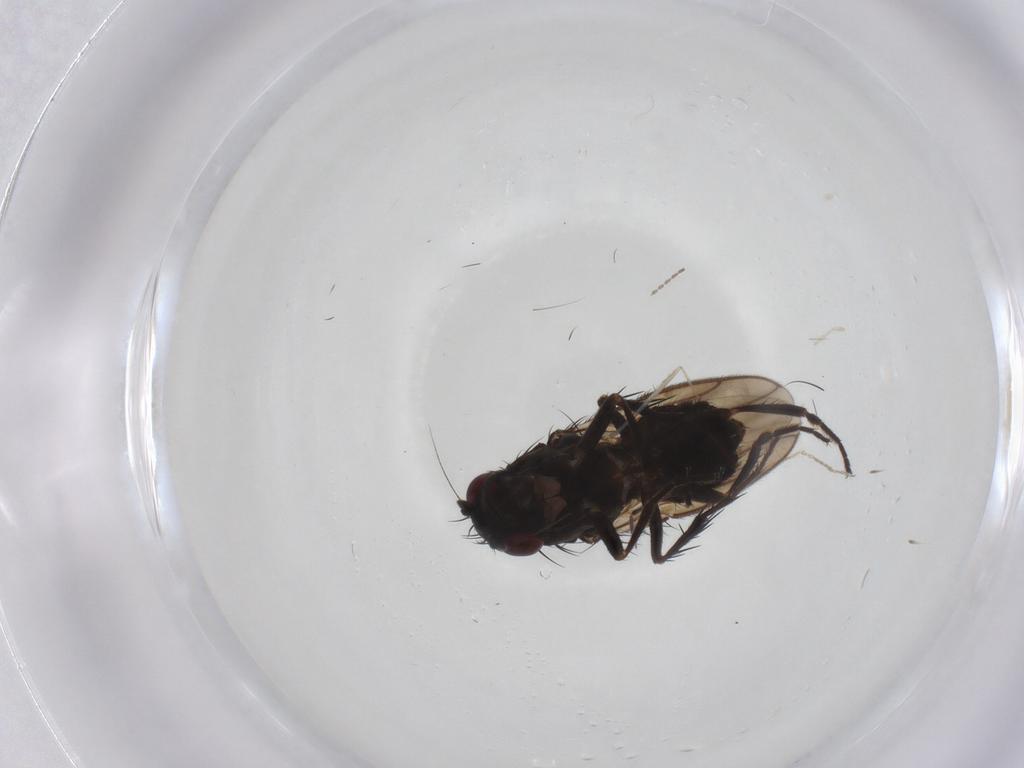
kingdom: Animalia
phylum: Arthropoda
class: Insecta
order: Diptera
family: Sphaeroceridae
